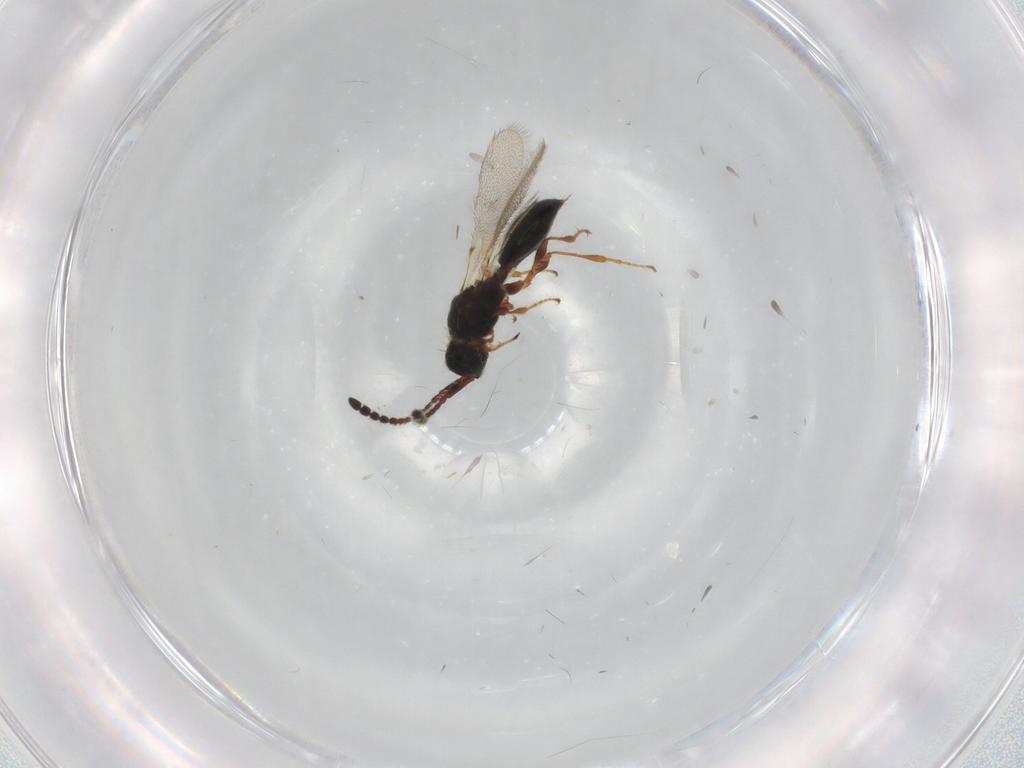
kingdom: Animalia
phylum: Arthropoda
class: Insecta
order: Hymenoptera
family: Diapriidae
